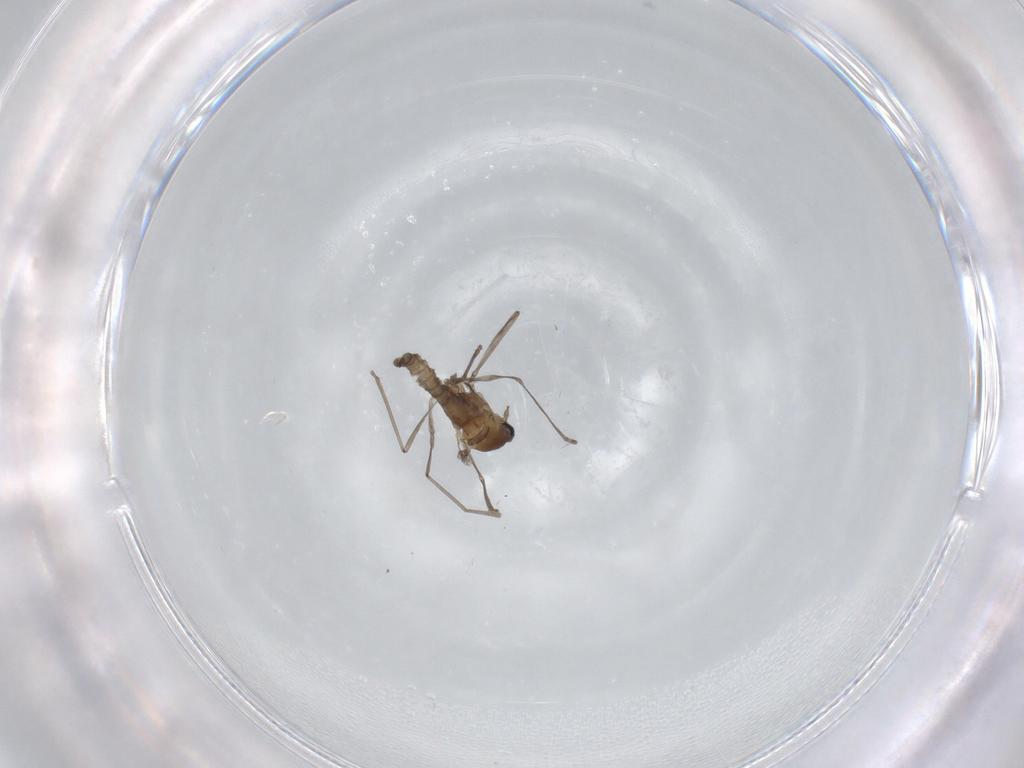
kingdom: Animalia
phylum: Arthropoda
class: Insecta
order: Diptera
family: Cecidomyiidae
